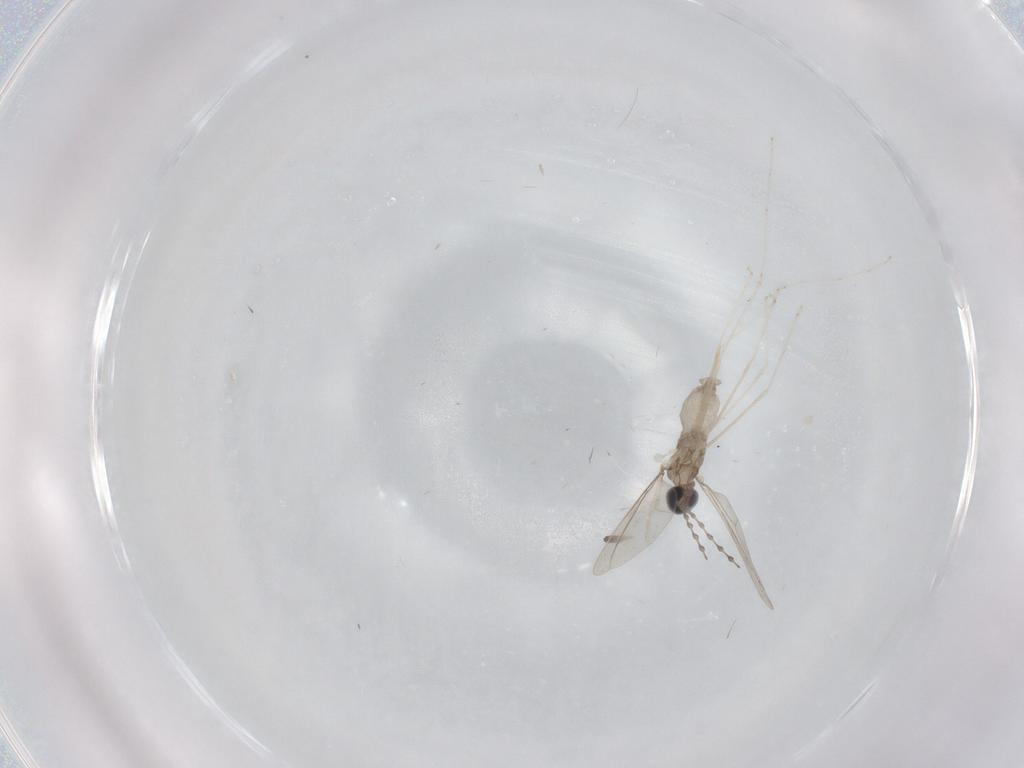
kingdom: Animalia
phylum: Arthropoda
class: Insecta
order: Diptera
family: Cecidomyiidae
